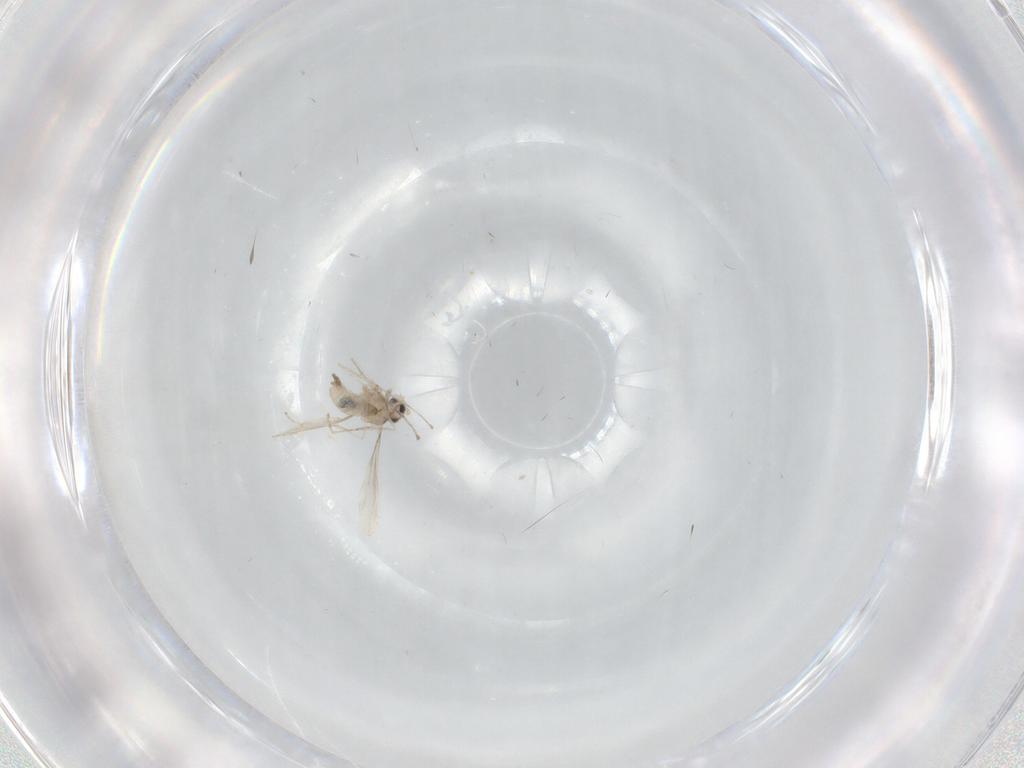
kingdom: Animalia
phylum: Arthropoda
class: Insecta
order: Diptera
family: Cecidomyiidae
